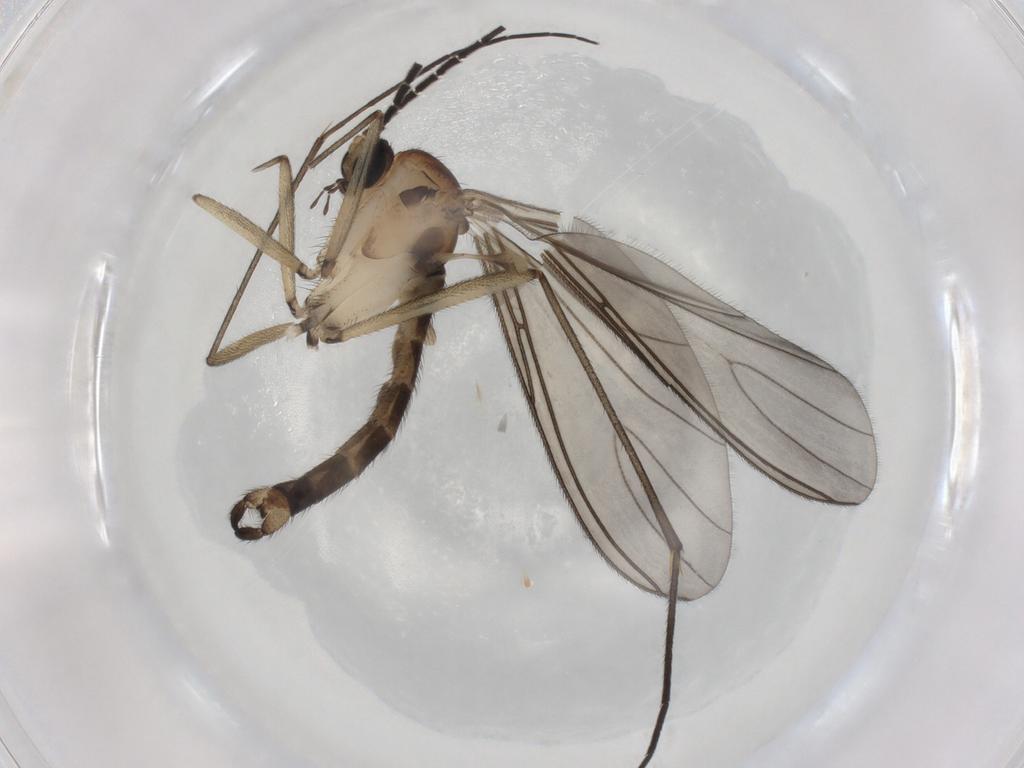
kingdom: Animalia
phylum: Arthropoda
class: Insecta
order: Diptera
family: Sciaridae
